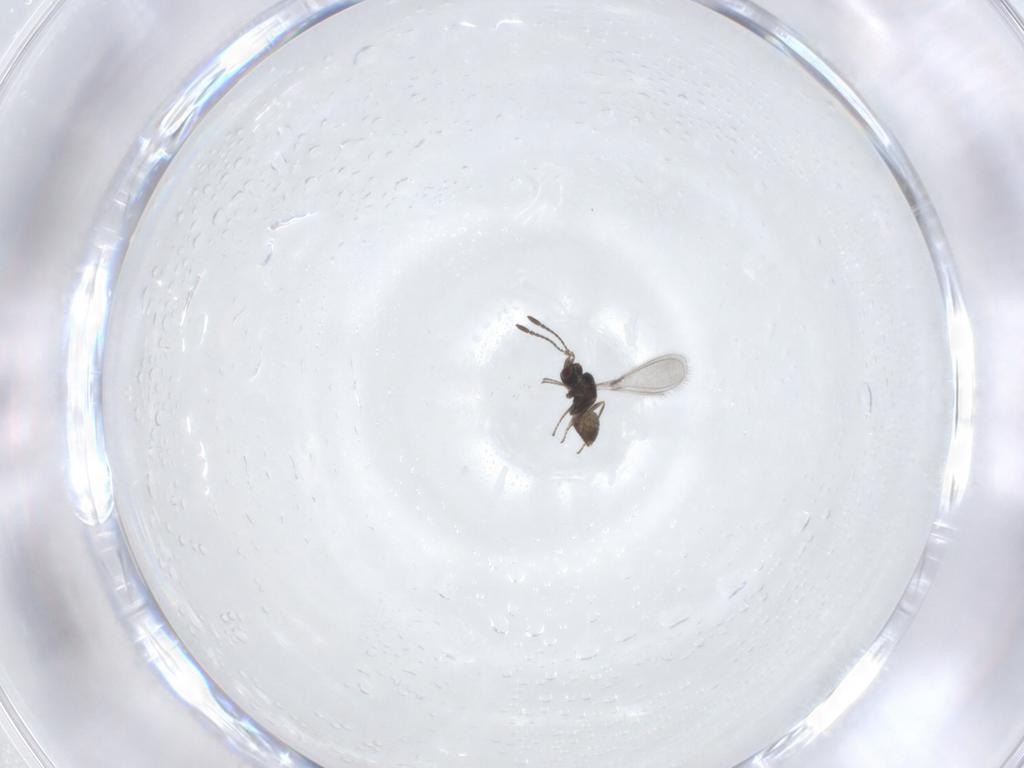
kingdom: Animalia
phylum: Arthropoda
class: Insecta
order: Hymenoptera
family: Mymaridae
